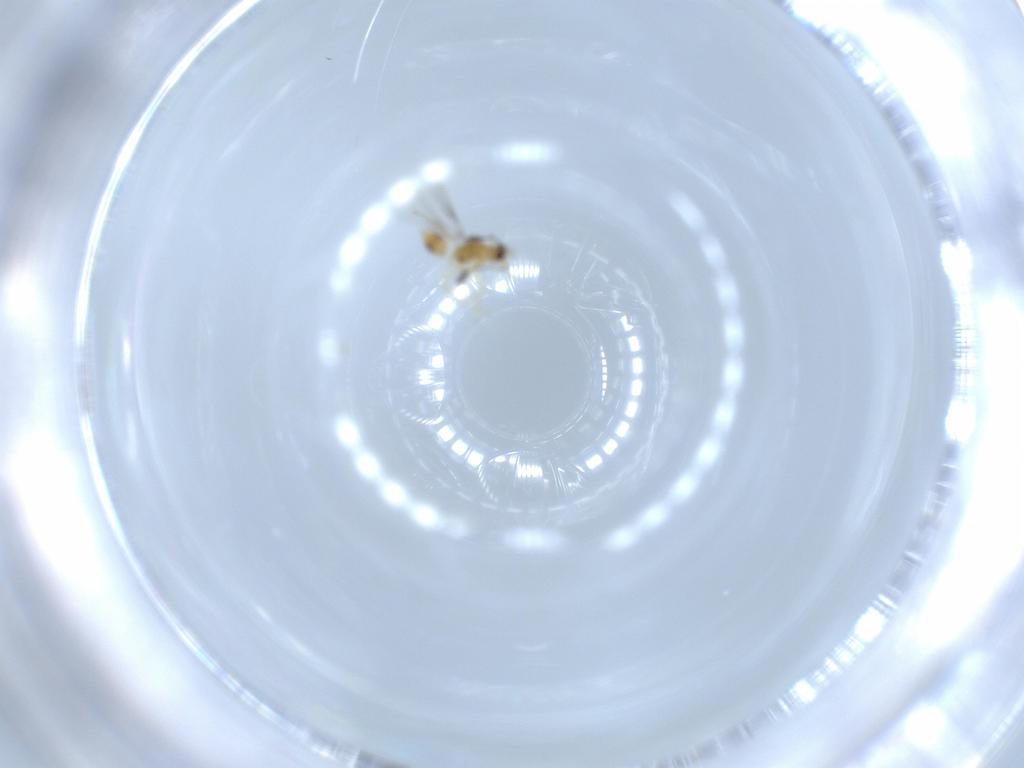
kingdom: Animalia
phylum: Arthropoda
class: Insecta
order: Hymenoptera
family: Mymaridae
